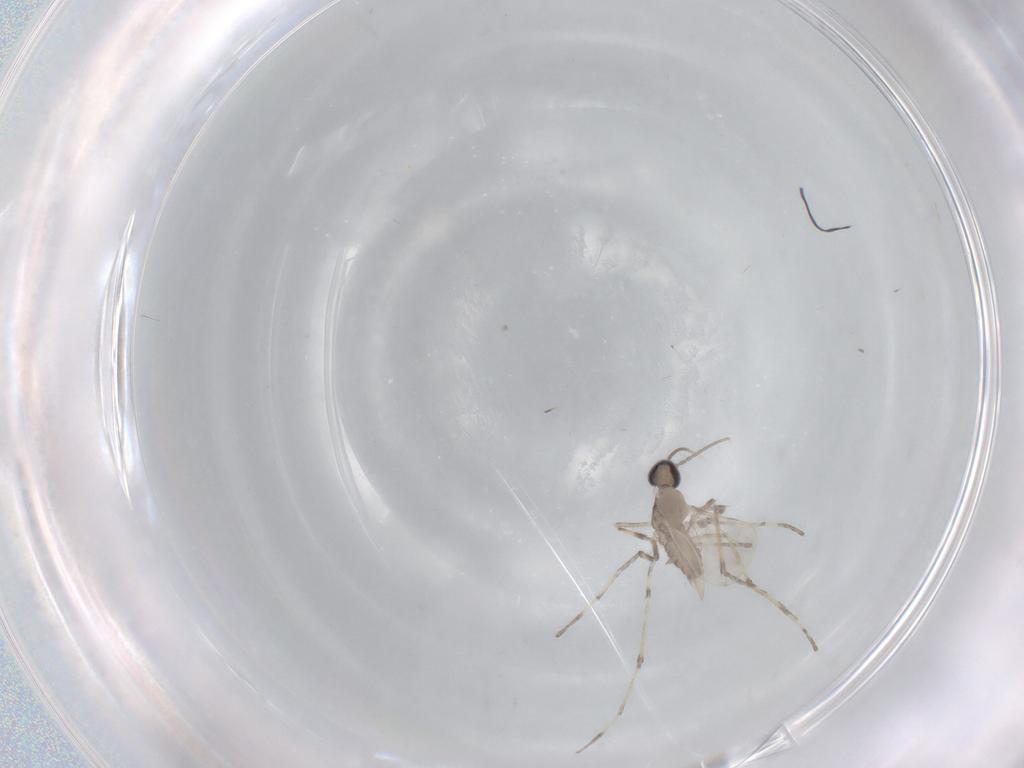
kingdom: Animalia
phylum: Arthropoda
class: Insecta
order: Diptera
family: Cecidomyiidae
